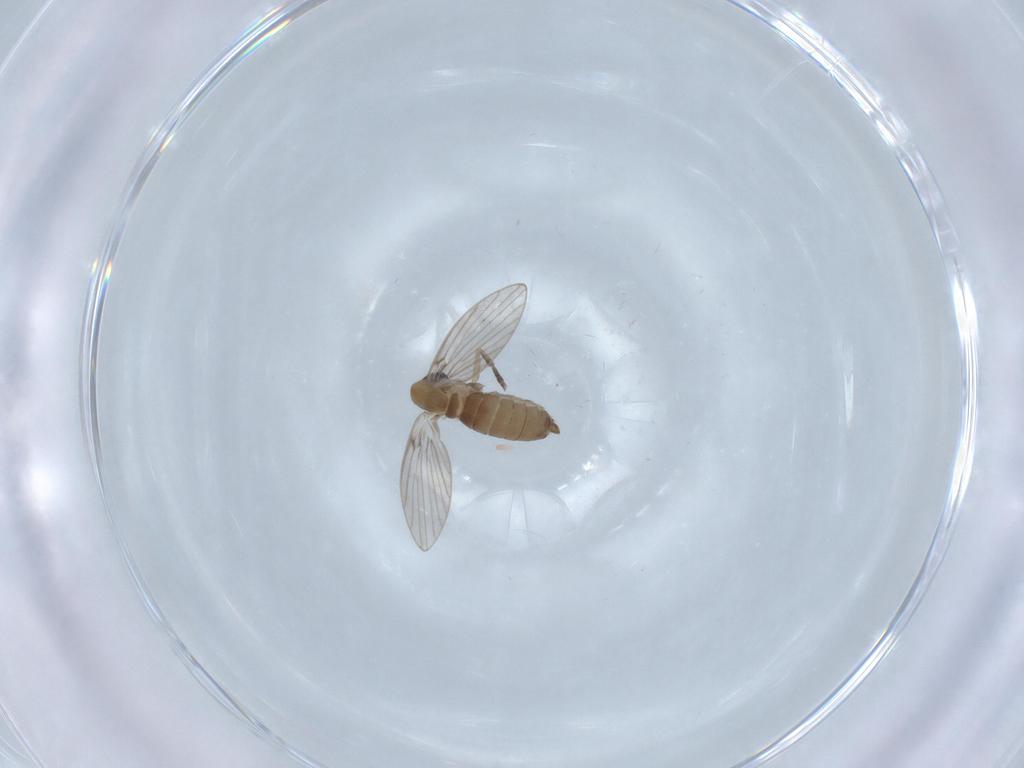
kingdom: Animalia
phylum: Arthropoda
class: Insecta
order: Diptera
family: Psychodidae
